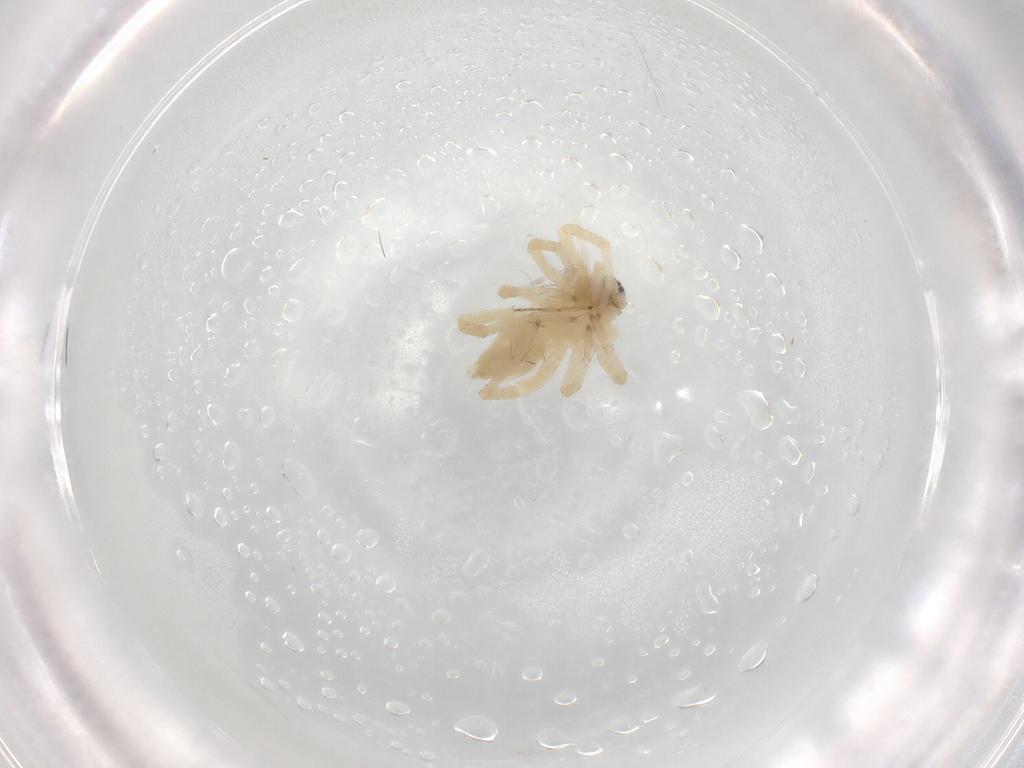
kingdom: Animalia
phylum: Arthropoda
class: Arachnida
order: Araneae
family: Anyphaenidae
